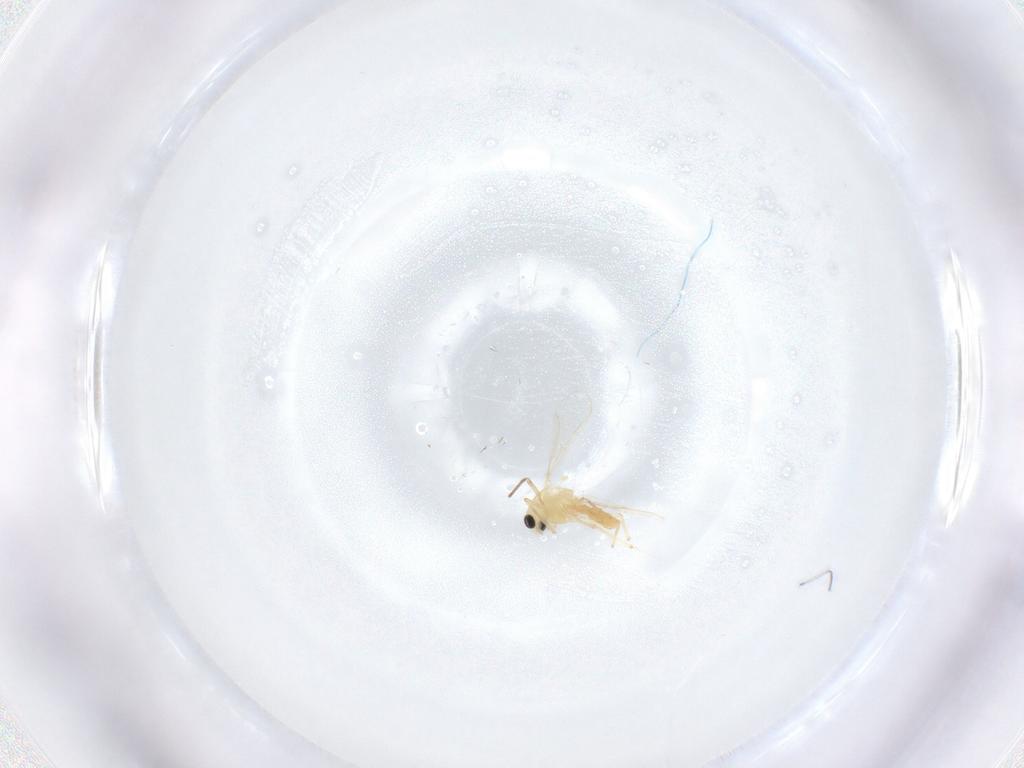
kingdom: Animalia
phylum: Arthropoda
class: Insecta
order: Diptera
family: Chironomidae
